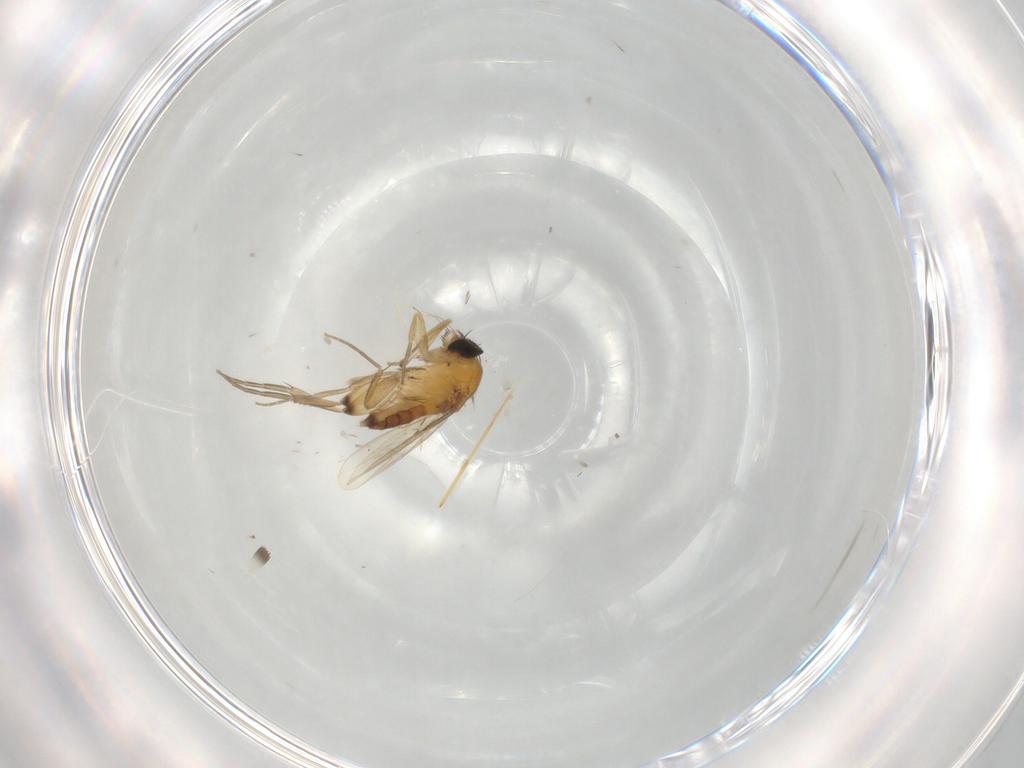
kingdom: Animalia
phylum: Arthropoda
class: Insecta
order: Diptera
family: Phoridae
